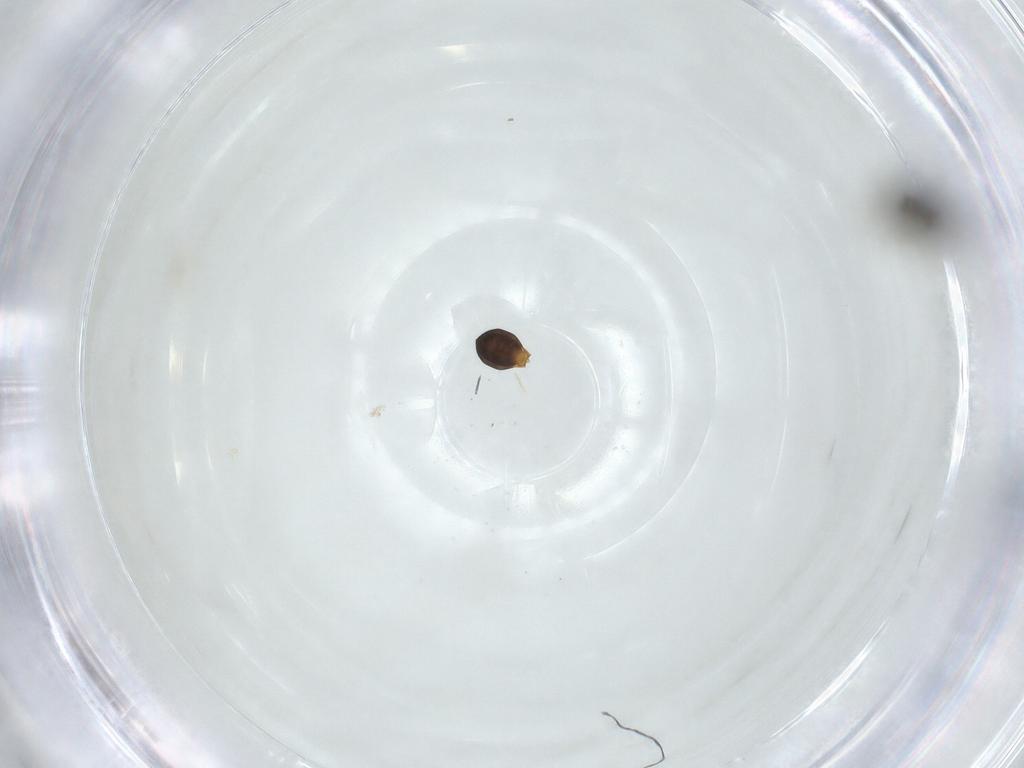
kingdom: Animalia
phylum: Arthropoda
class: Insecta
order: Hymenoptera
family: Scelionidae
